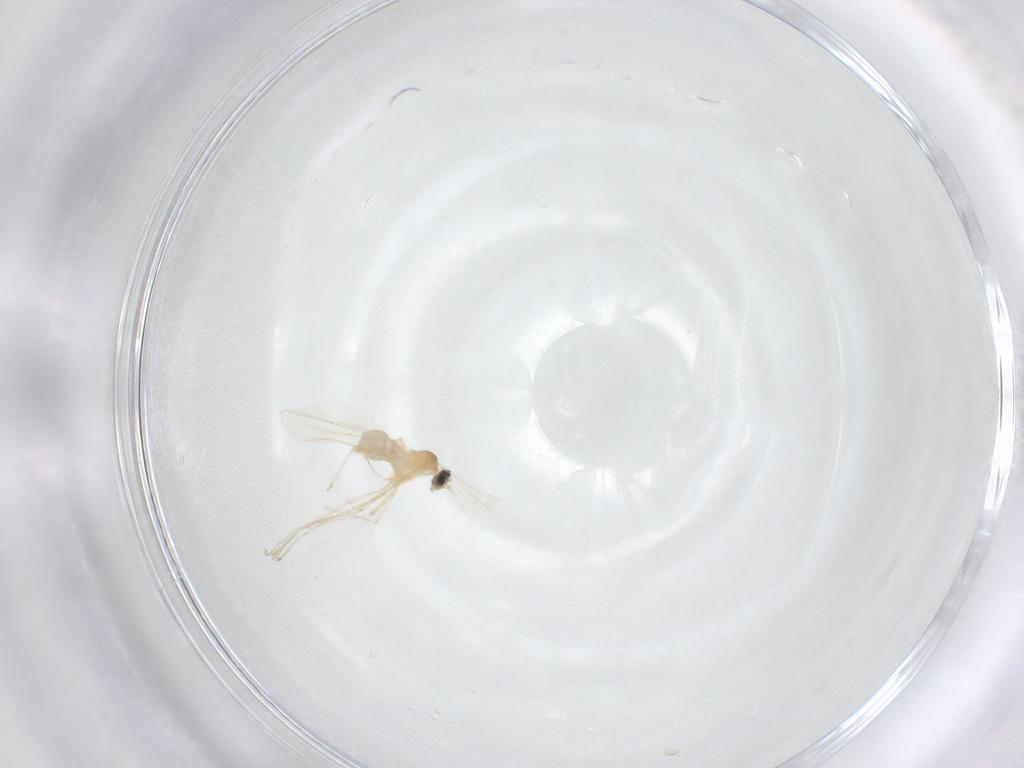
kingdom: Animalia
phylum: Arthropoda
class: Insecta
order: Diptera
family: Cecidomyiidae
